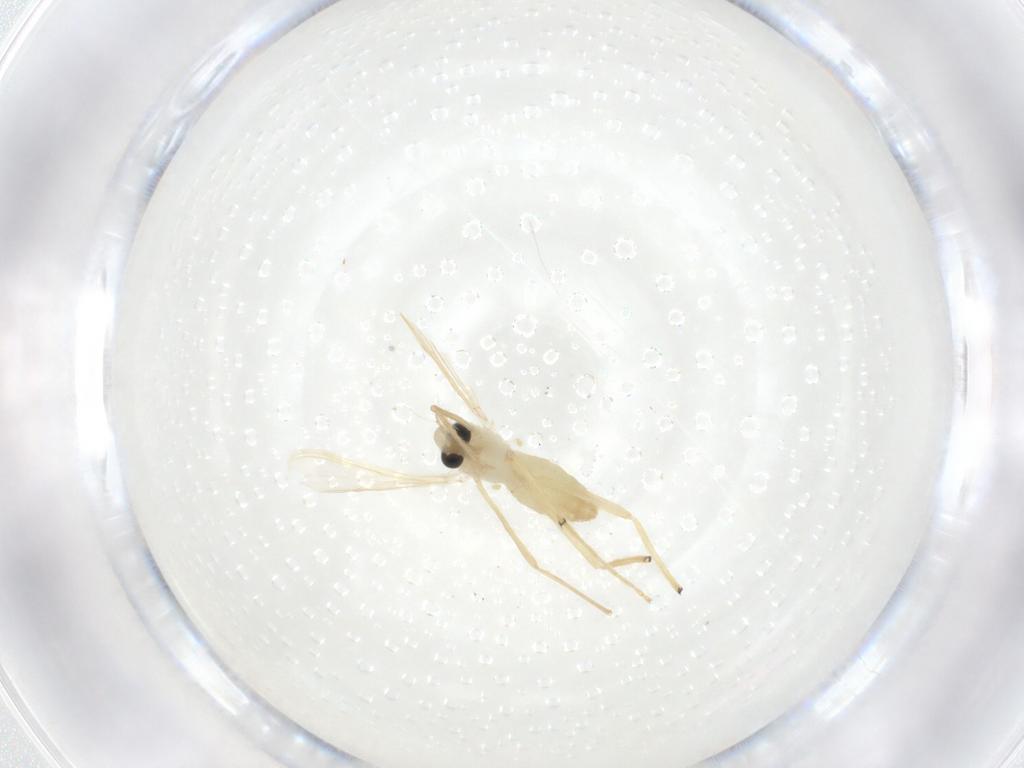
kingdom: Animalia
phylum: Arthropoda
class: Insecta
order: Diptera
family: Chironomidae
